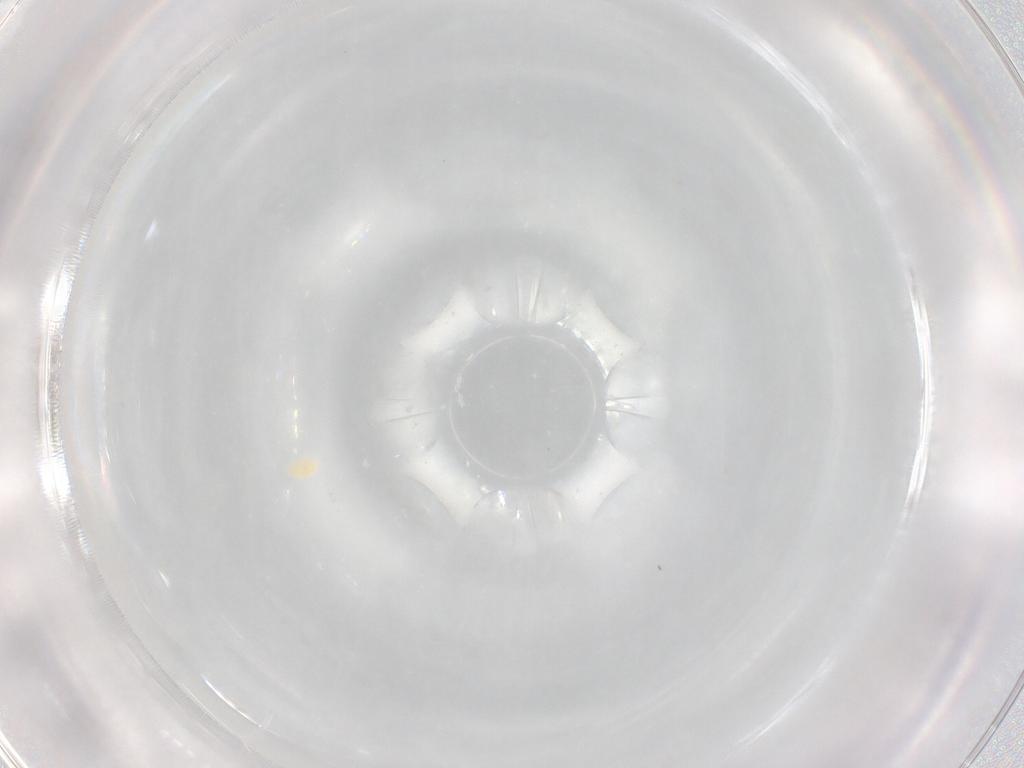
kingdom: Animalia
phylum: Arthropoda
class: Arachnida
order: Trombidiformes
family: Tetranychidae
